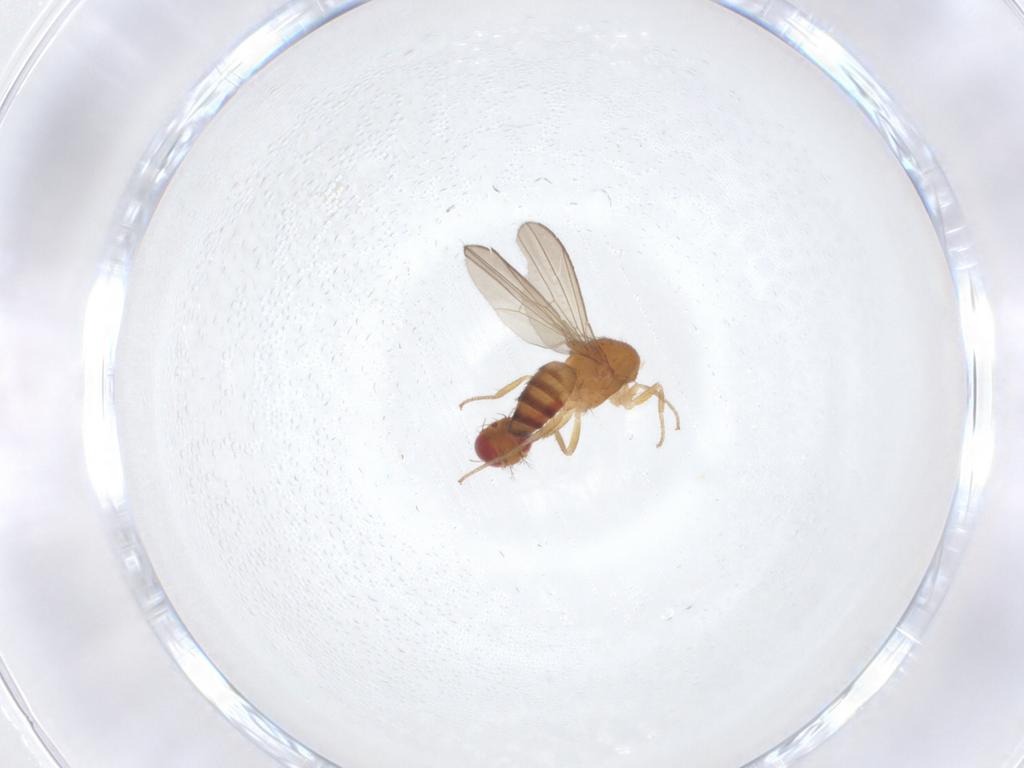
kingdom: Animalia
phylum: Arthropoda
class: Insecta
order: Diptera
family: Drosophilidae
